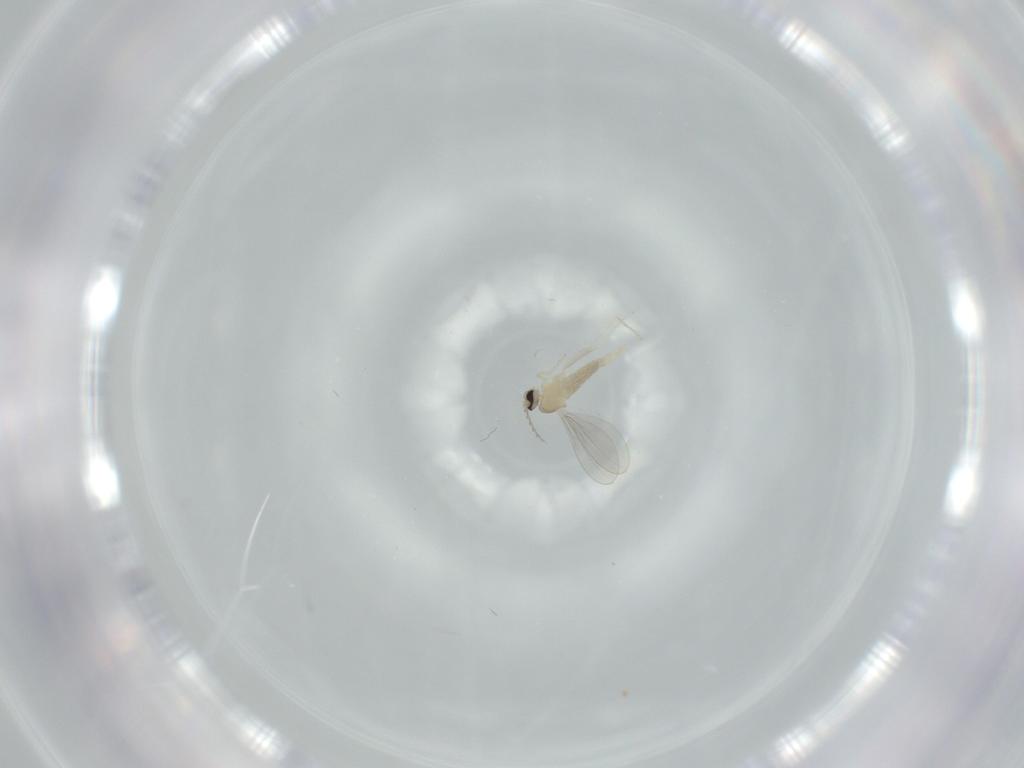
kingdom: Animalia
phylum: Arthropoda
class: Insecta
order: Diptera
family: Cecidomyiidae
